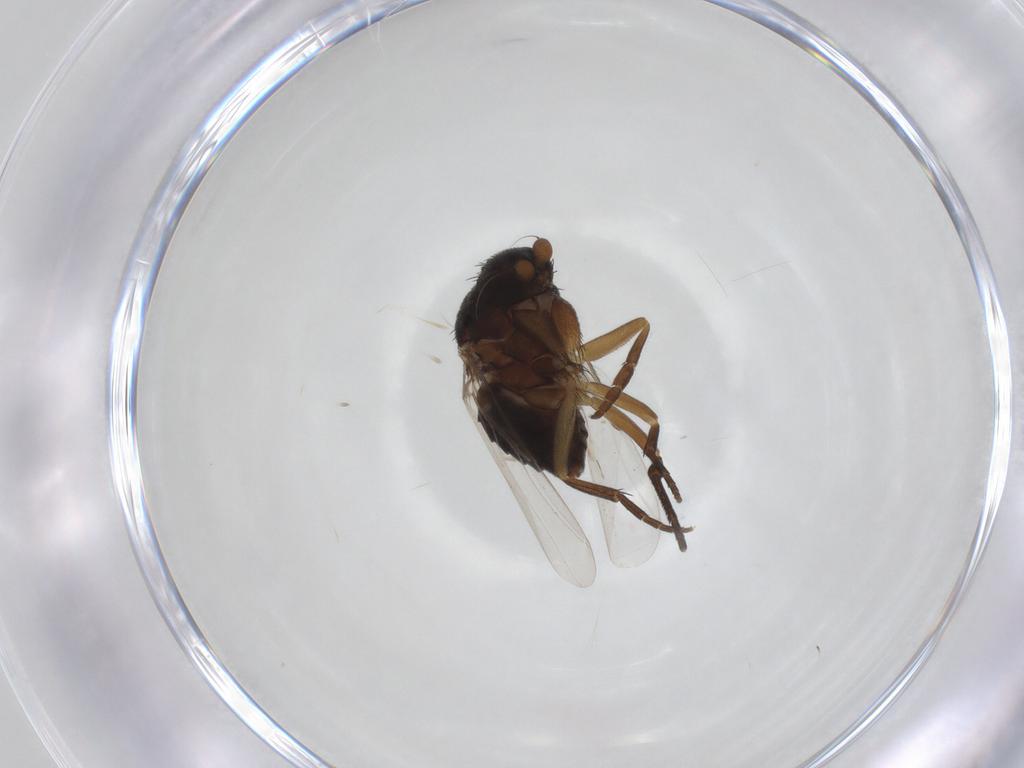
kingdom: Animalia
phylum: Arthropoda
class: Insecta
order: Diptera
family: Phoridae
